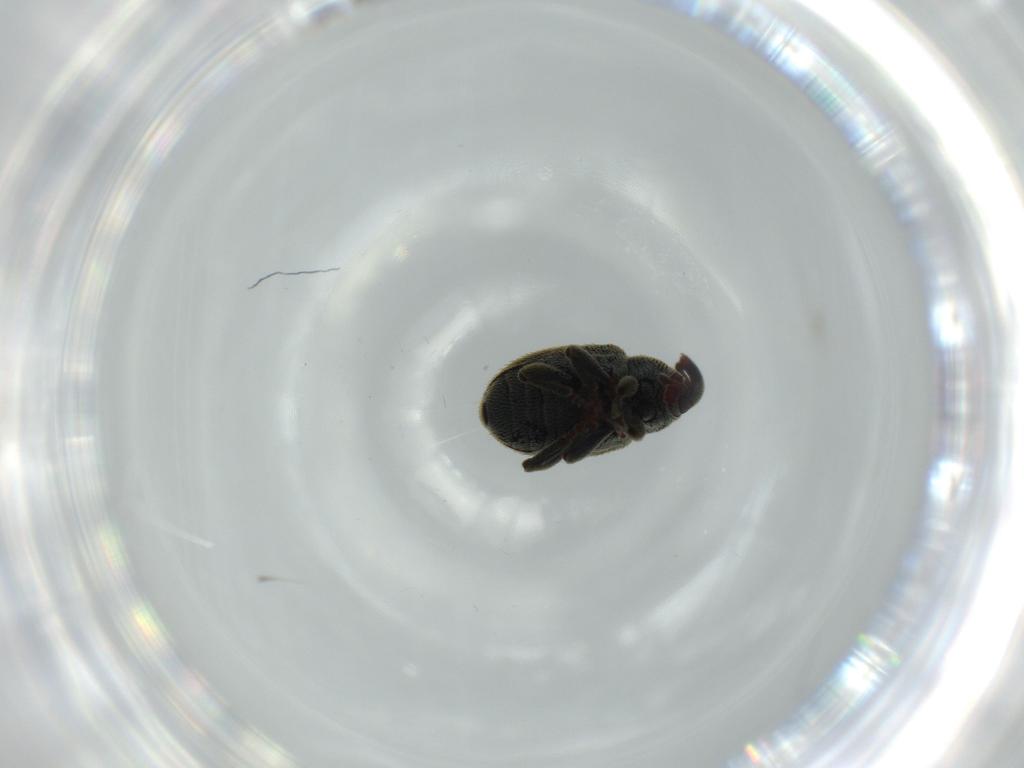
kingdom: Animalia
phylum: Arthropoda
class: Insecta
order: Coleoptera
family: Curculionidae
